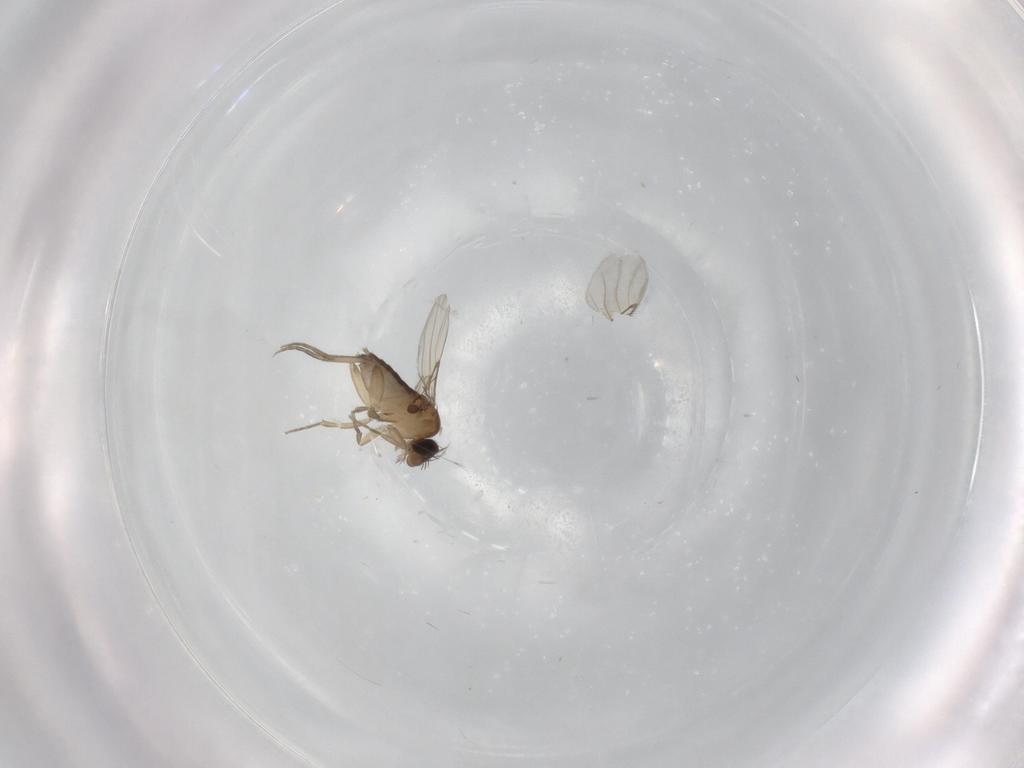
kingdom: Animalia
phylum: Arthropoda
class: Insecta
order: Diptera
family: Phoridae
